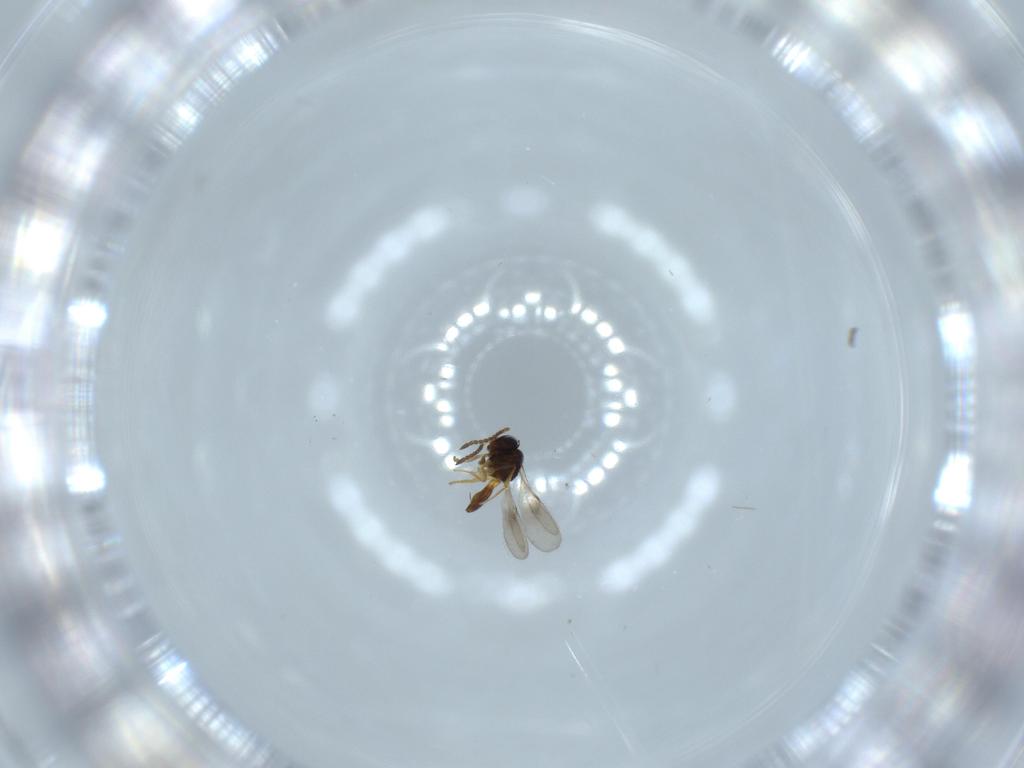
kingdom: Animalia
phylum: Arthropoda
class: Insecta
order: Hymenoptera
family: Scelionidae
